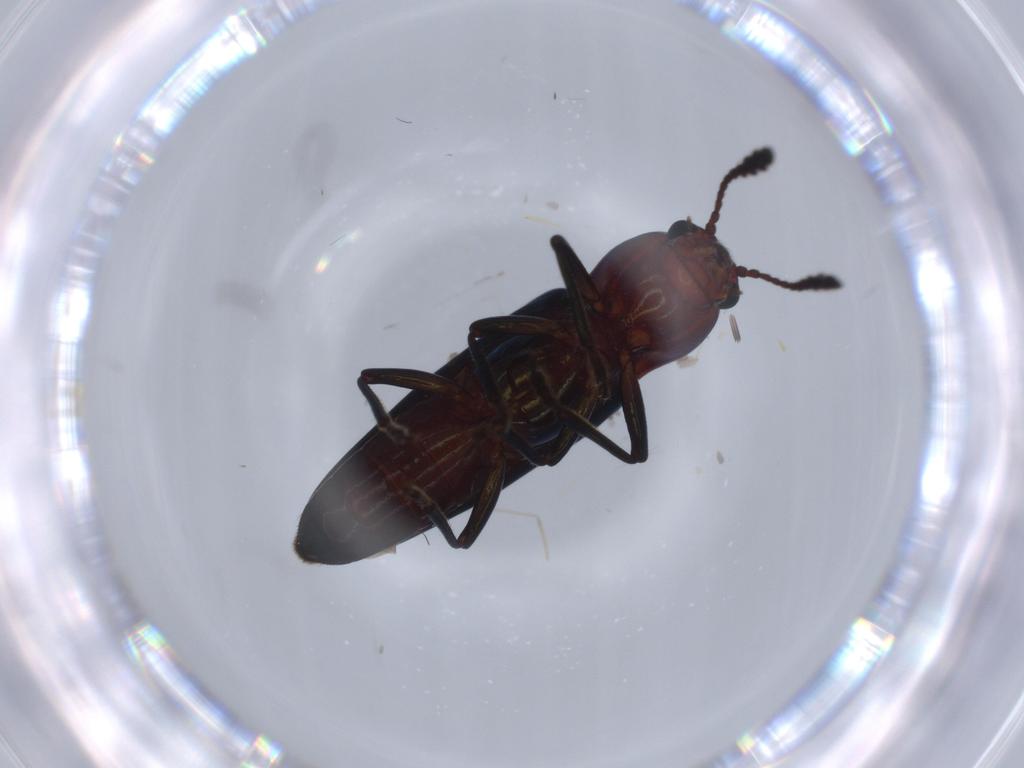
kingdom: Animalia
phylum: Arthropoda
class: Insecta
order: Coleoptera
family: Erotylidae
